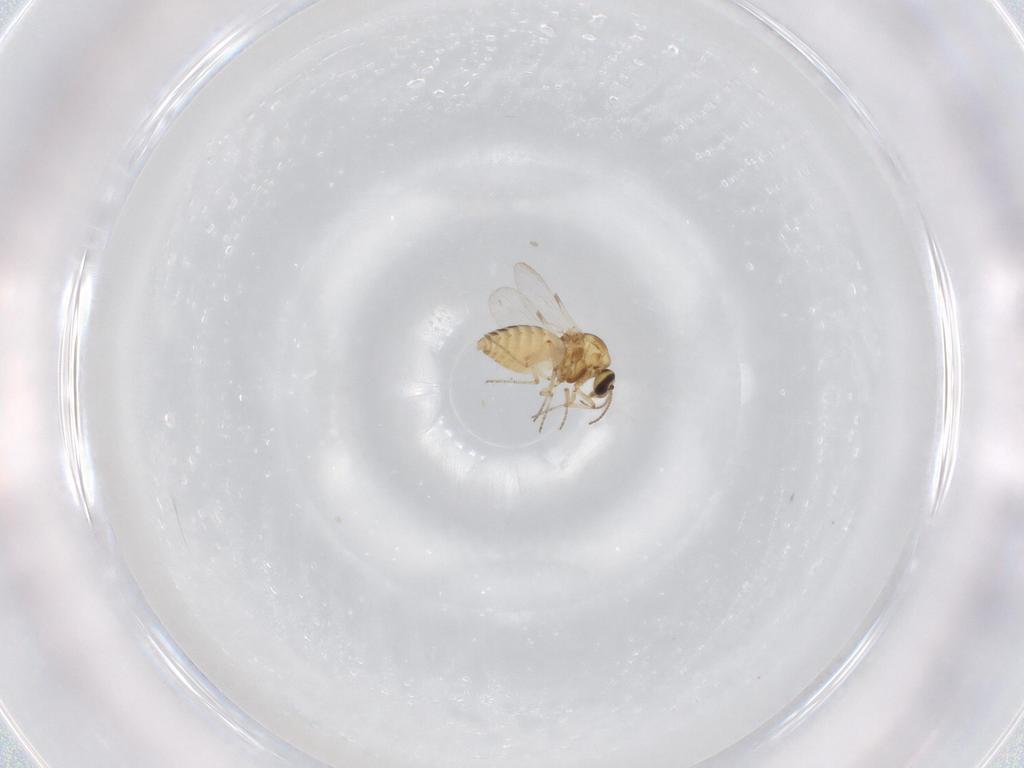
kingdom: Animalia
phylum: Arthropoda
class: Insecta
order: Diptera
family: Ceratopogonidae
